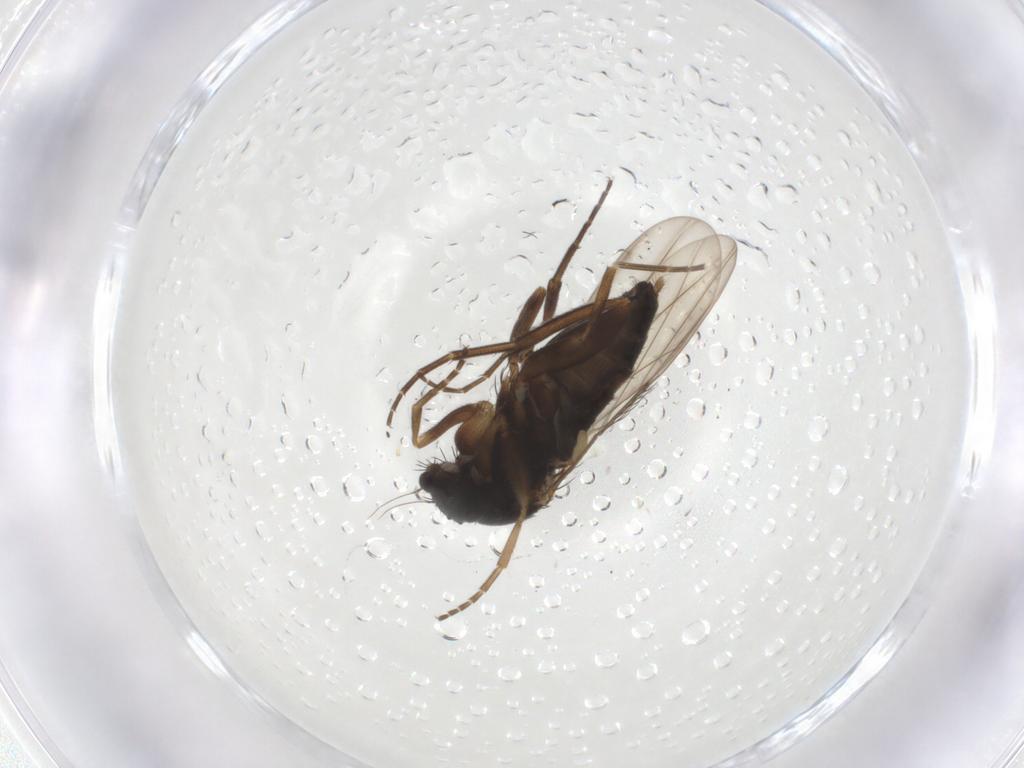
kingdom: Animalia
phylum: Arthropoda
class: Insecta
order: Diptera
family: Phoridae
